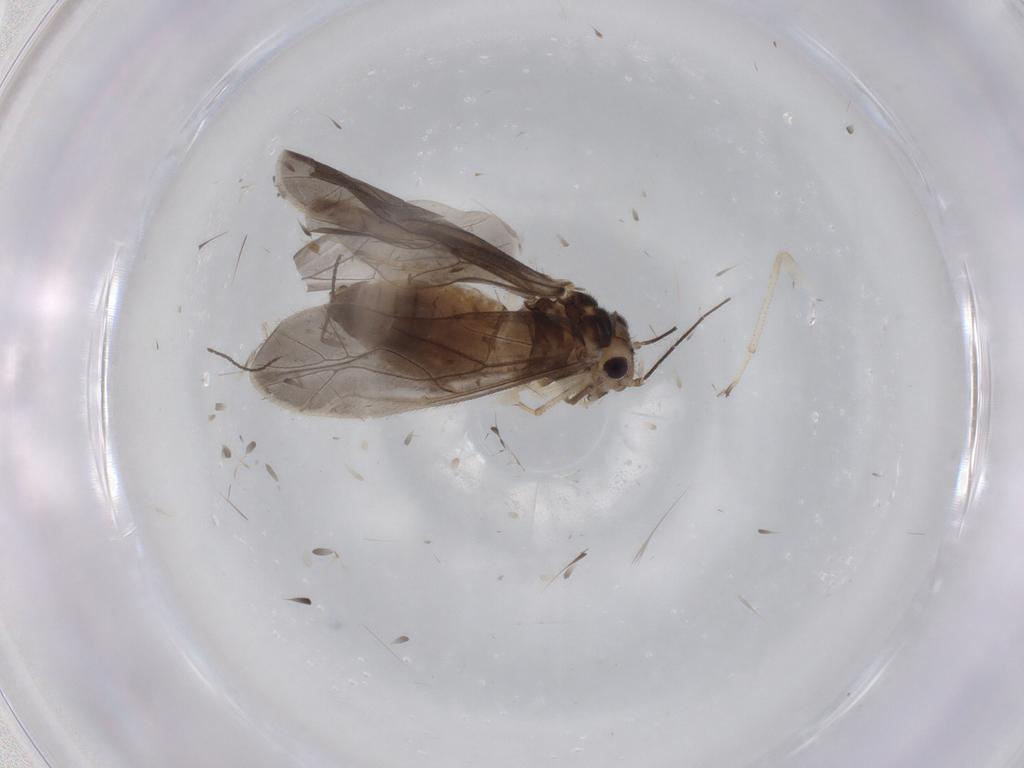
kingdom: Animalia
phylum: Arthropoda
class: Insecta
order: Psocodea
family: Caeciliusidae
